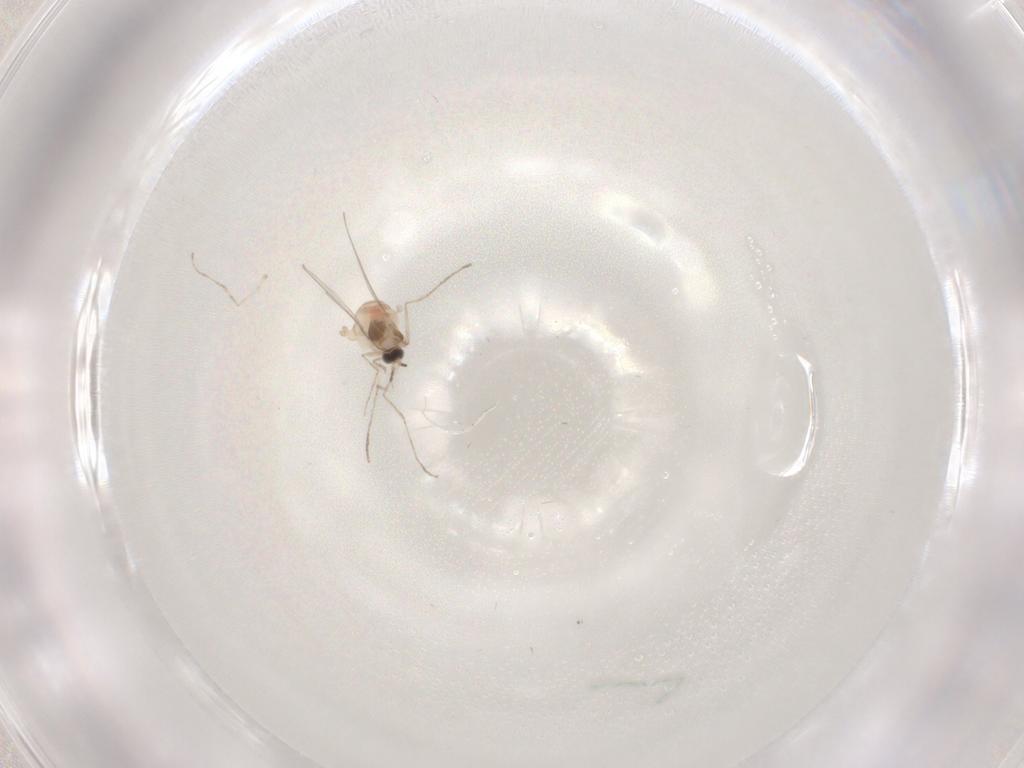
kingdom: Animalia
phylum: Arthropoda
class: Insecta
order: Diptera
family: Cecidomyiidae
